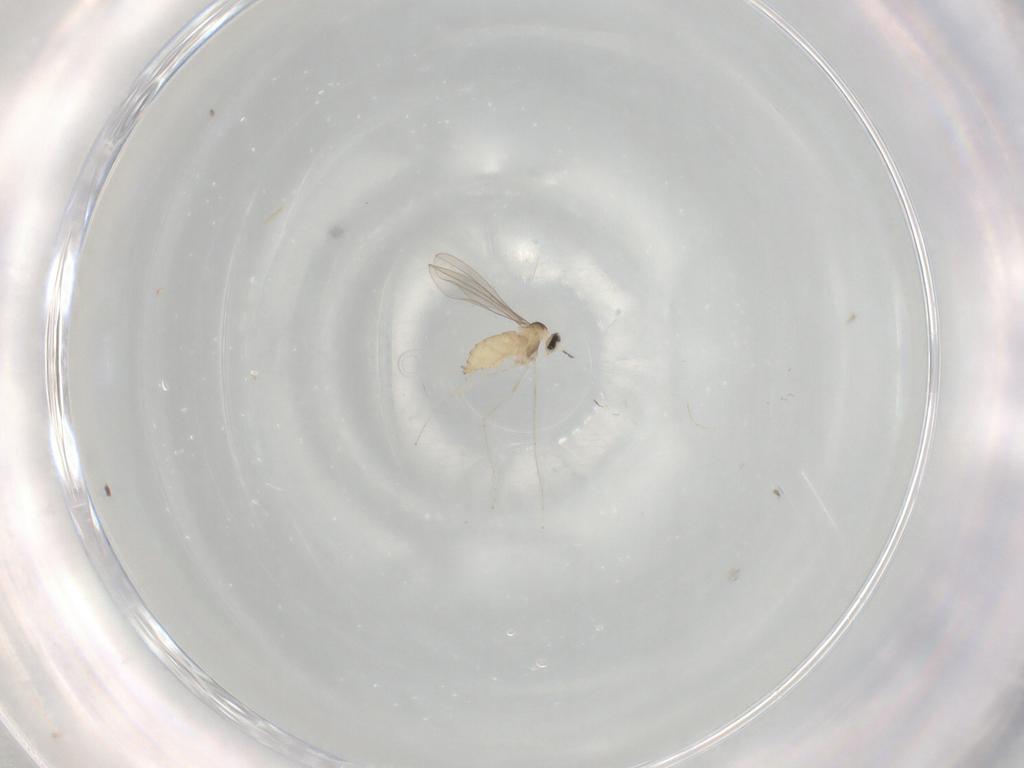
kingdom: Animalia
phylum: Arthropoda
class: Insecta
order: Diptera
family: Cecidomyiidae
